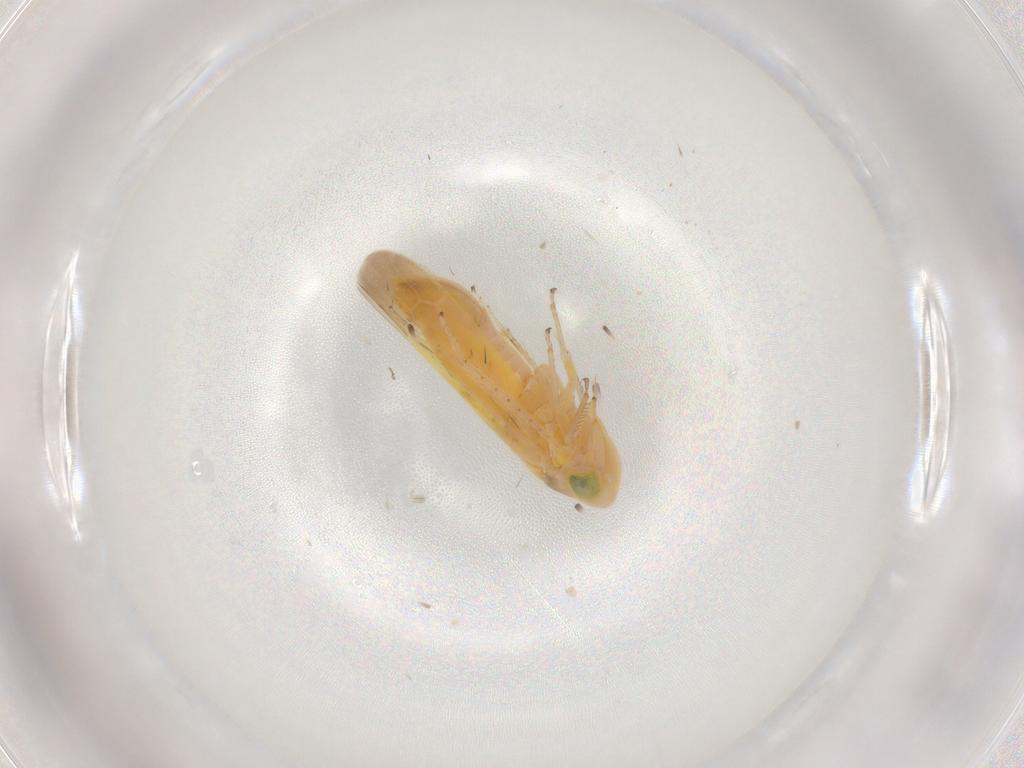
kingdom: Animalia
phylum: Arthropoda
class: Insecta
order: Hemiptera
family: Cicadellidae
